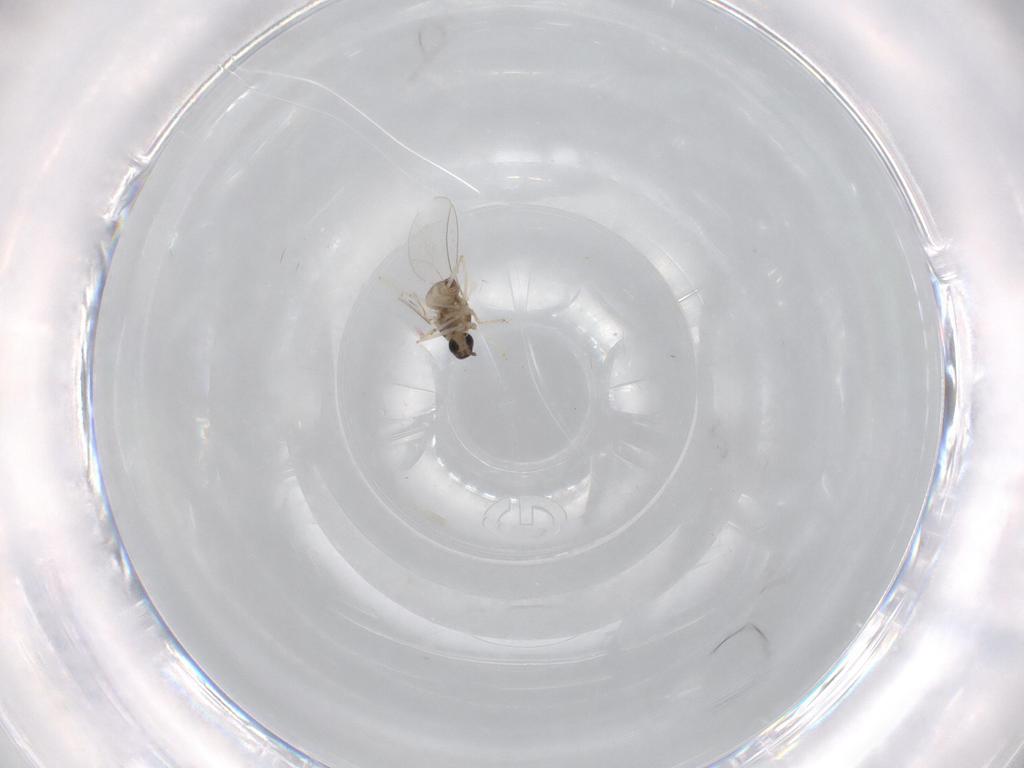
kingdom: Animalia
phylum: Arthropoda
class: Insecta
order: Diptera
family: Cecidomyiidae
